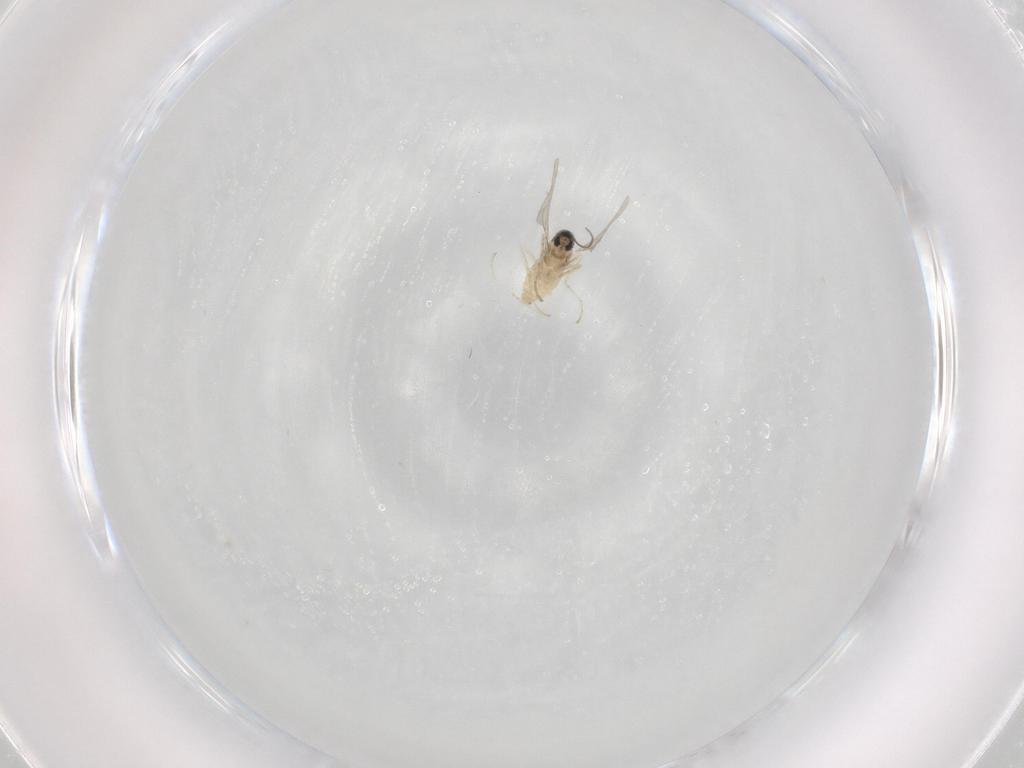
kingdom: Animalia
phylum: Arthropoda
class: Insecta
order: Diptera
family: Cecidomyiidae
